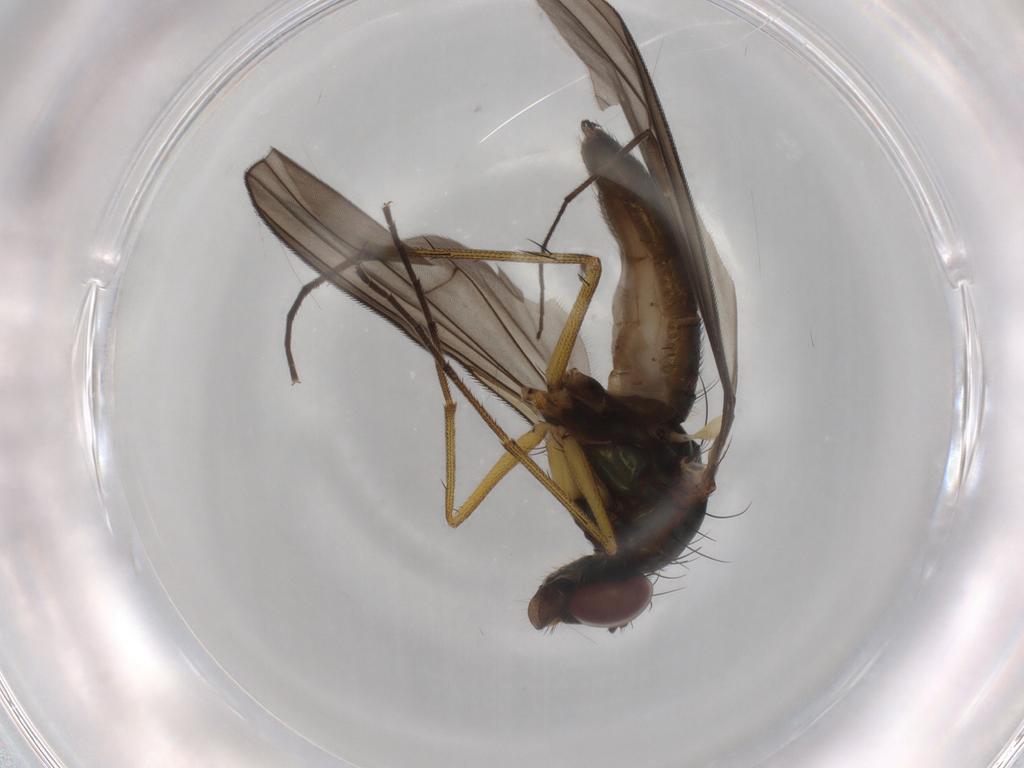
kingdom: Animalia
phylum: Arthropoda
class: Insecta
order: Diptera
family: Dolichopodidae
